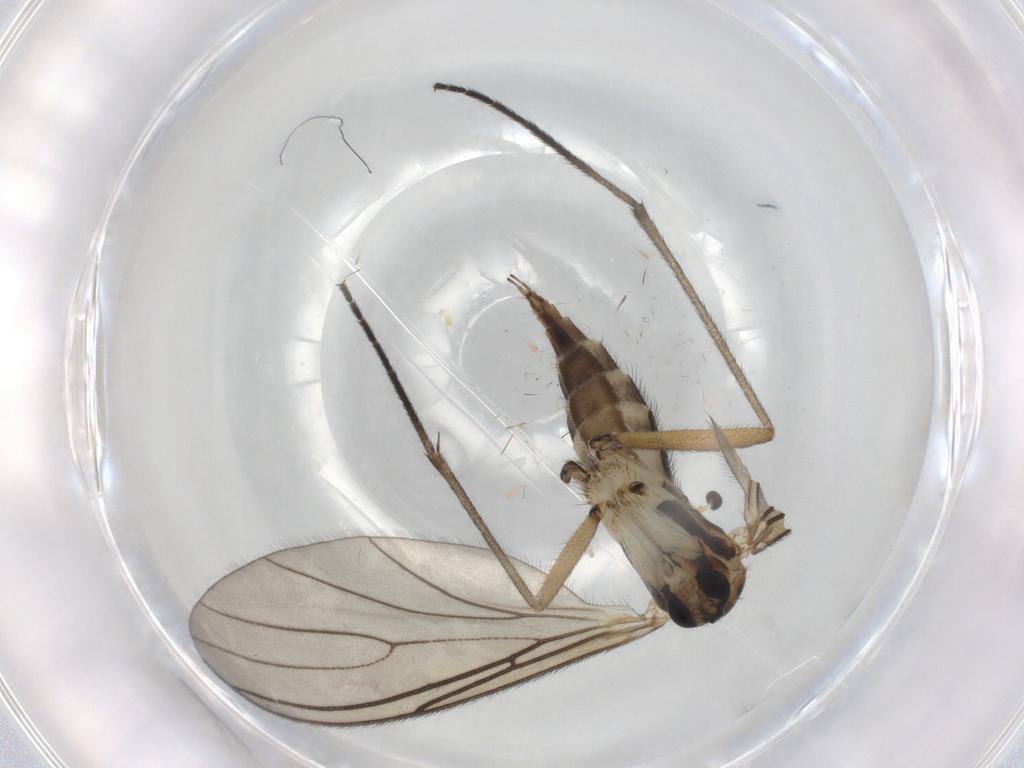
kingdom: Animalia
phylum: Arthropoda
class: Insecta
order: Diptera
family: Sciaridae
